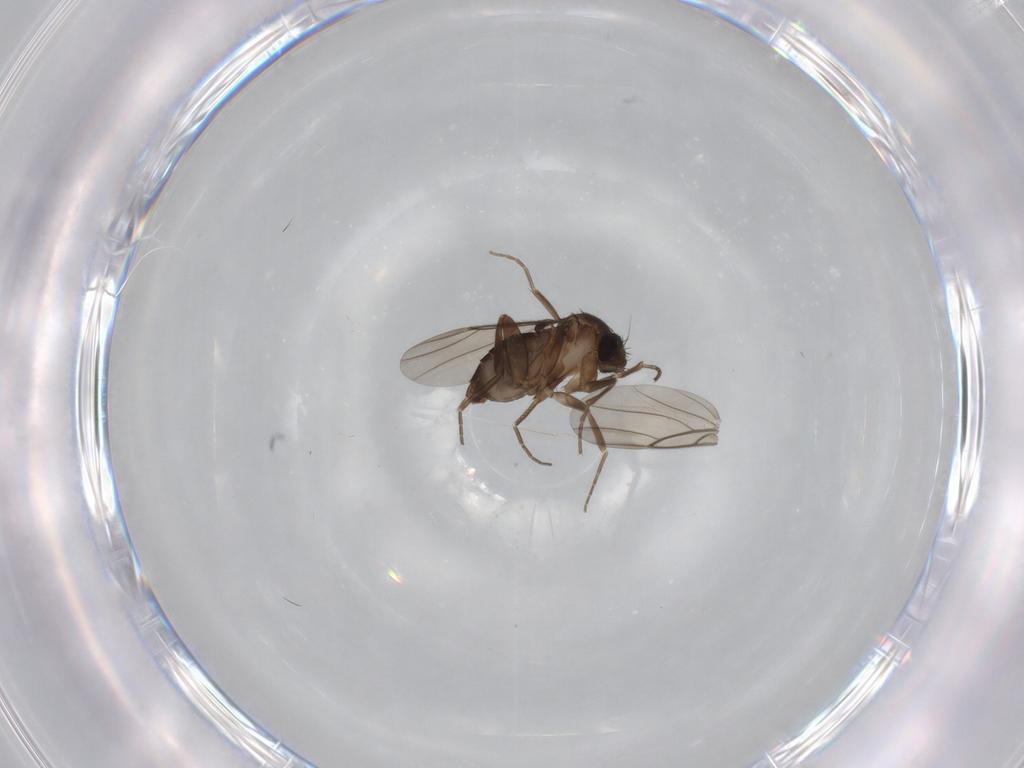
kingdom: Animalia
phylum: Arthropoda
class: Insecta
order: Diptera
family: Phoridae
